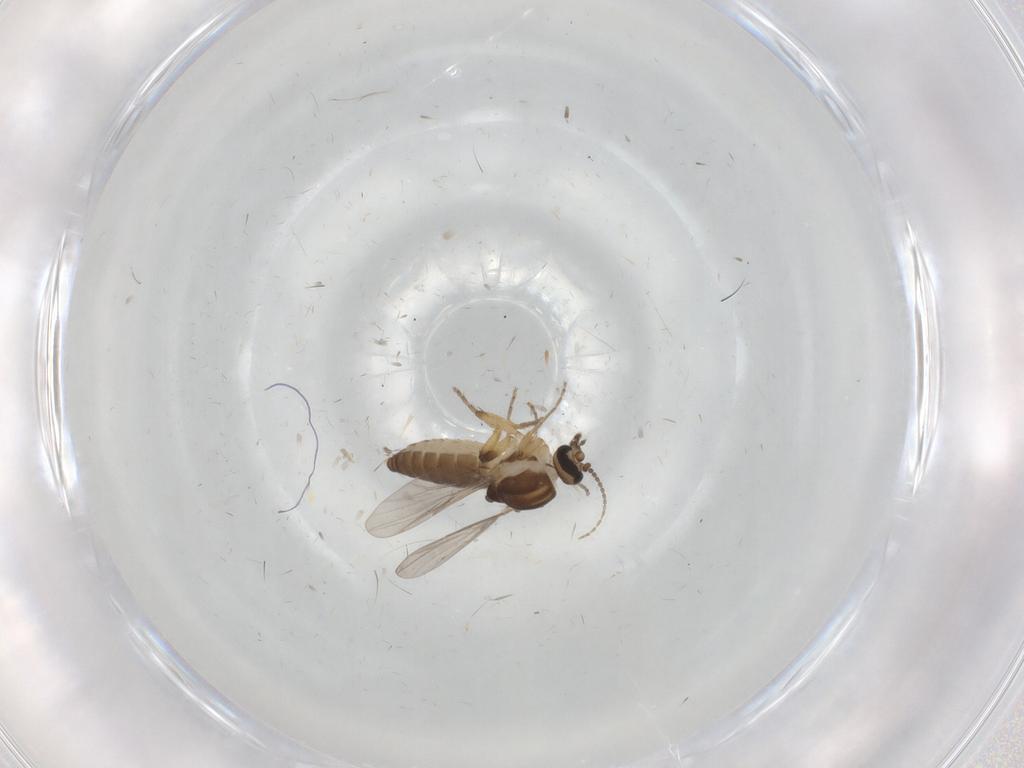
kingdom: Animalia
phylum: Arthropoda
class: Insecta
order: Diptera
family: Ceratopogonidae
